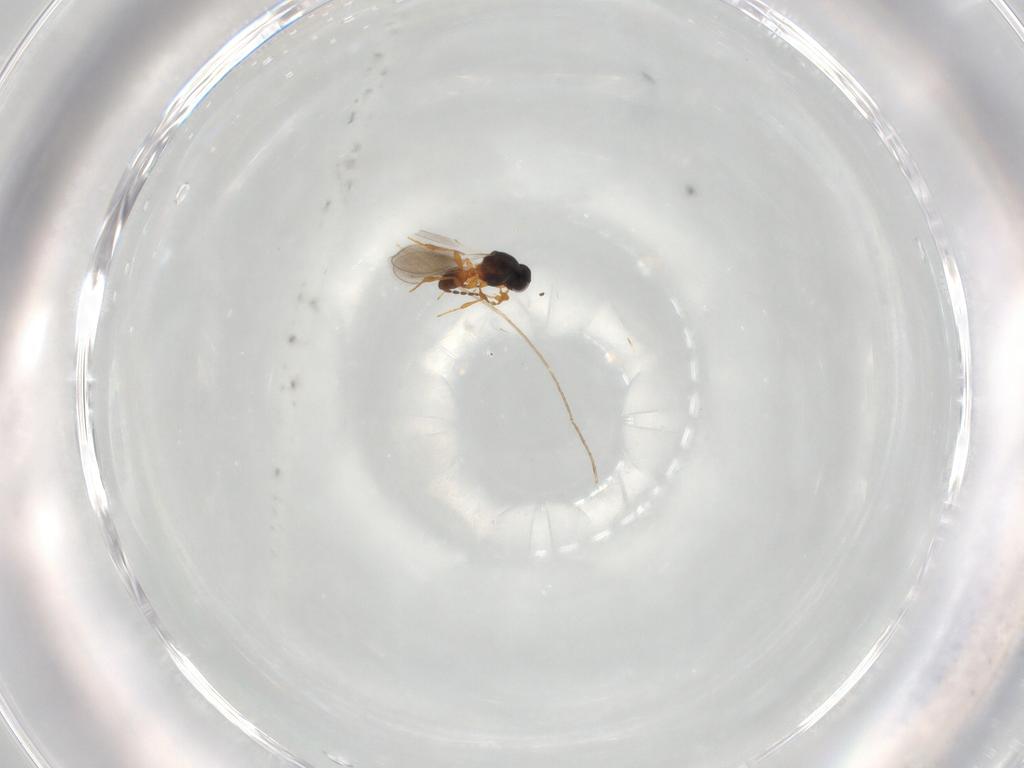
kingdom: Animalia
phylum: Arthropoda
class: Insecta
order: Hymenoptera
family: Platygastridae
